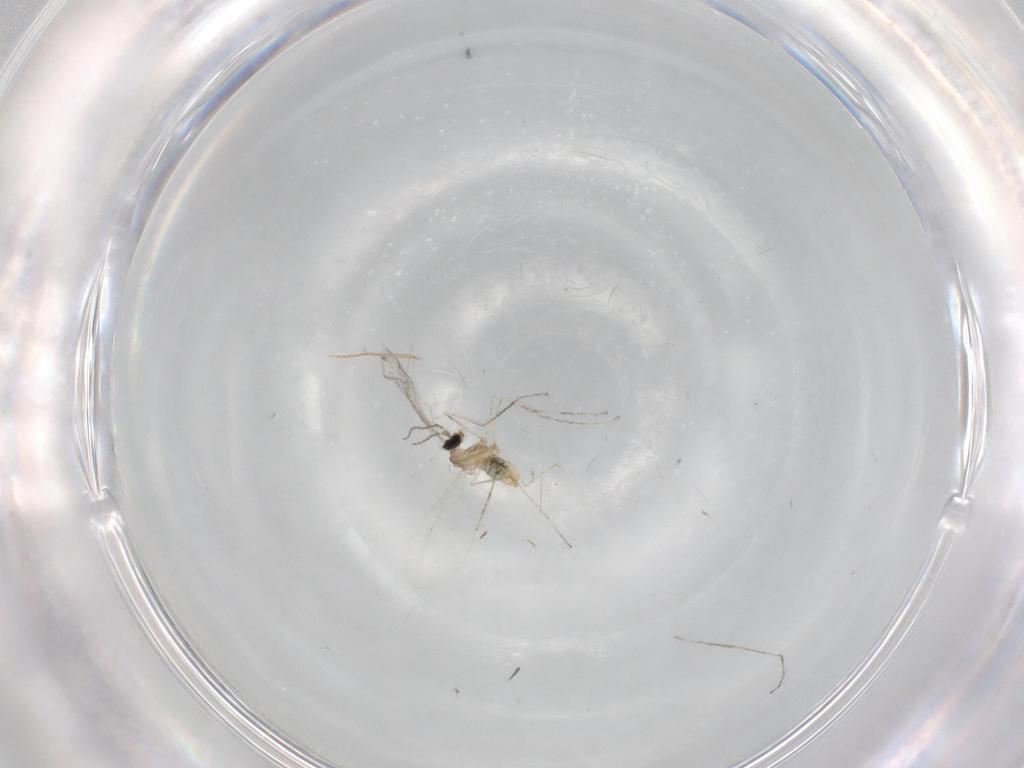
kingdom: Animalia
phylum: Arthropoda
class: Insecta
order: Diptera
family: Cecidomyiidae
